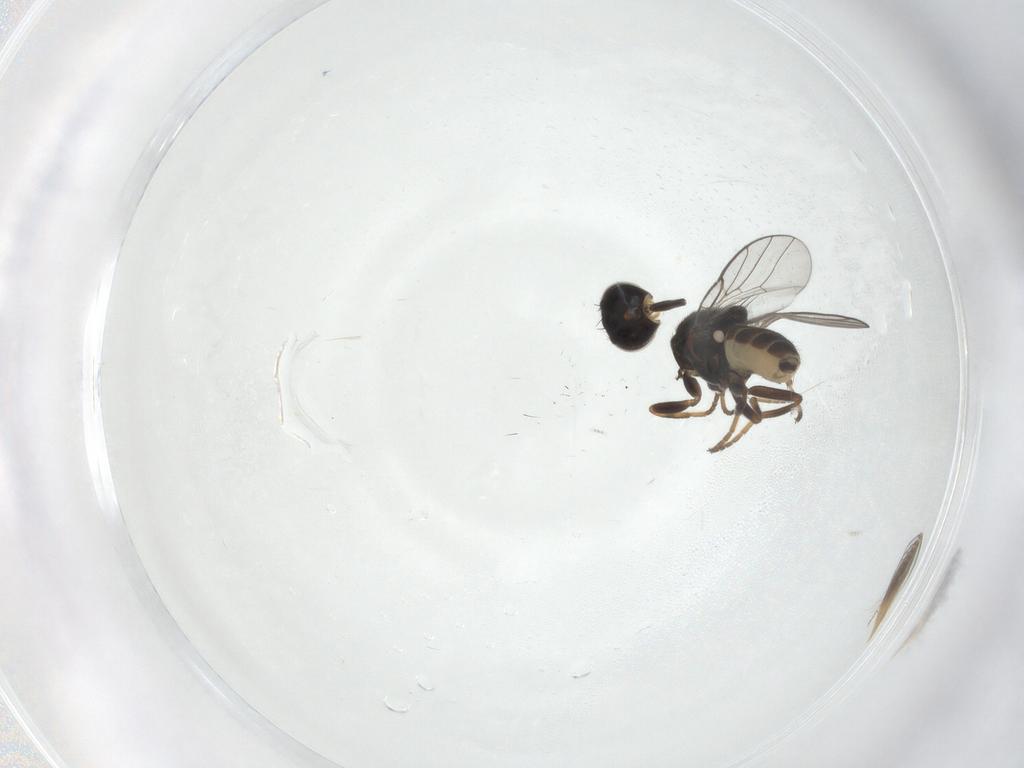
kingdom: Animalia
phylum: Arthropoda
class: Insecta
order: Diptera
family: Chloropidae
